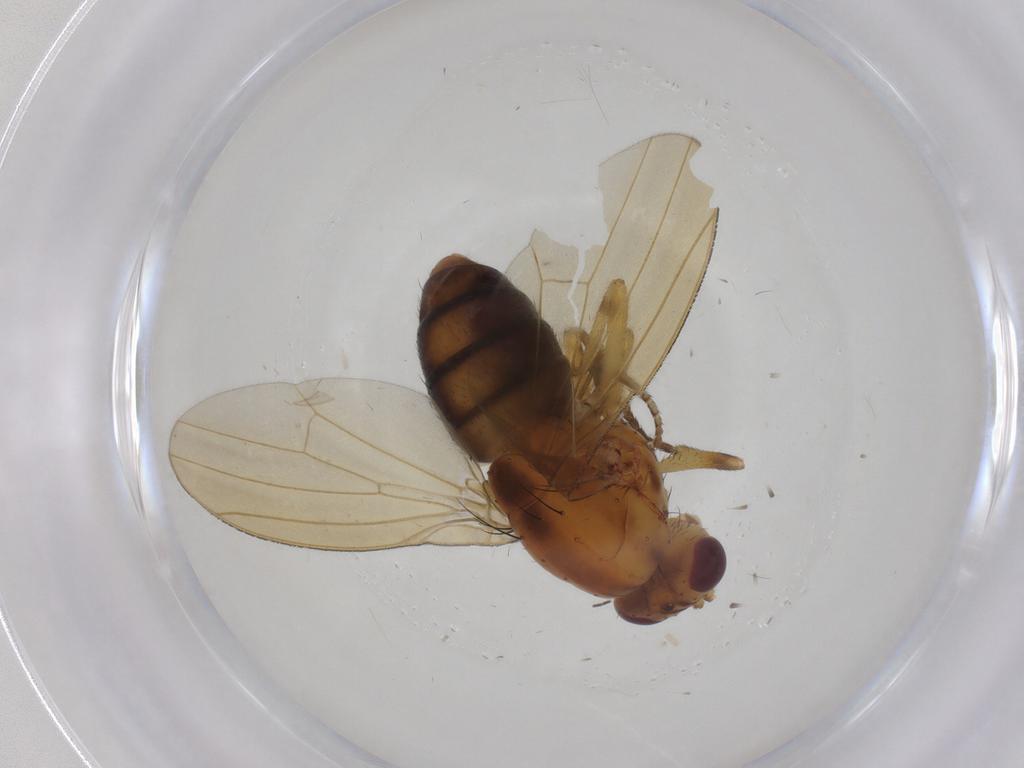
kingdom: Animalia
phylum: Arthropoda
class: Insecta
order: Diptera
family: Sciaridae
